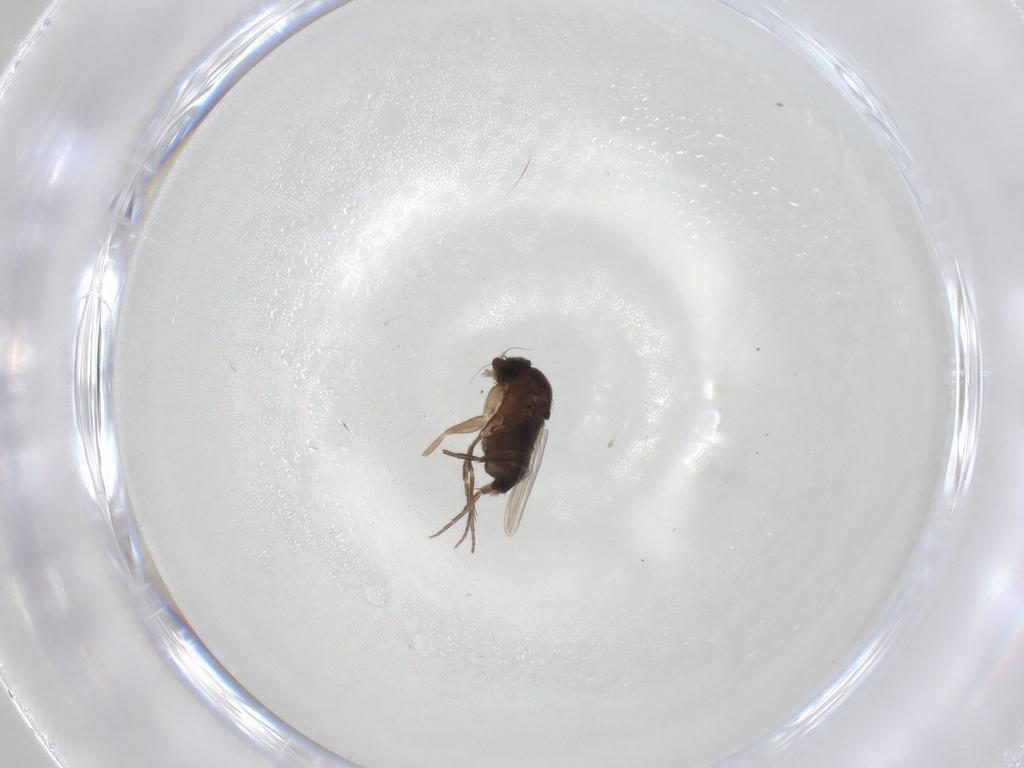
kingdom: Animalia
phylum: Arthropoda
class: Insecta
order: Diptera
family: Phoridae
